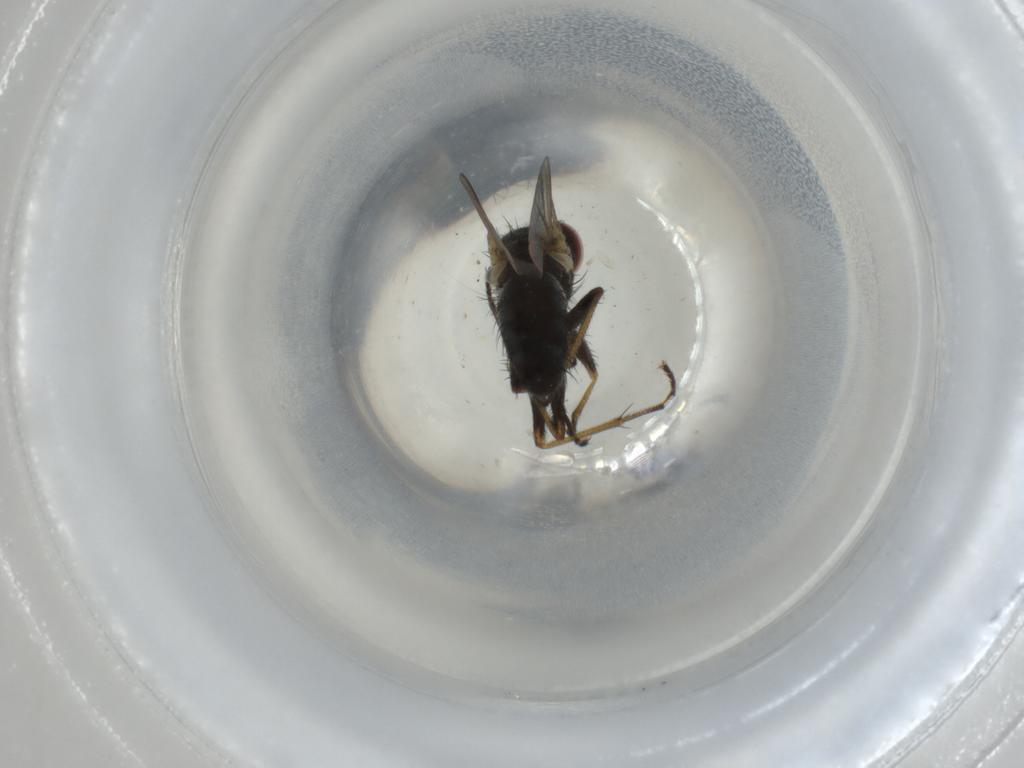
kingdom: Animalia
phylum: Arthropoda
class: Insecta
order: Diptera
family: Muscidae
